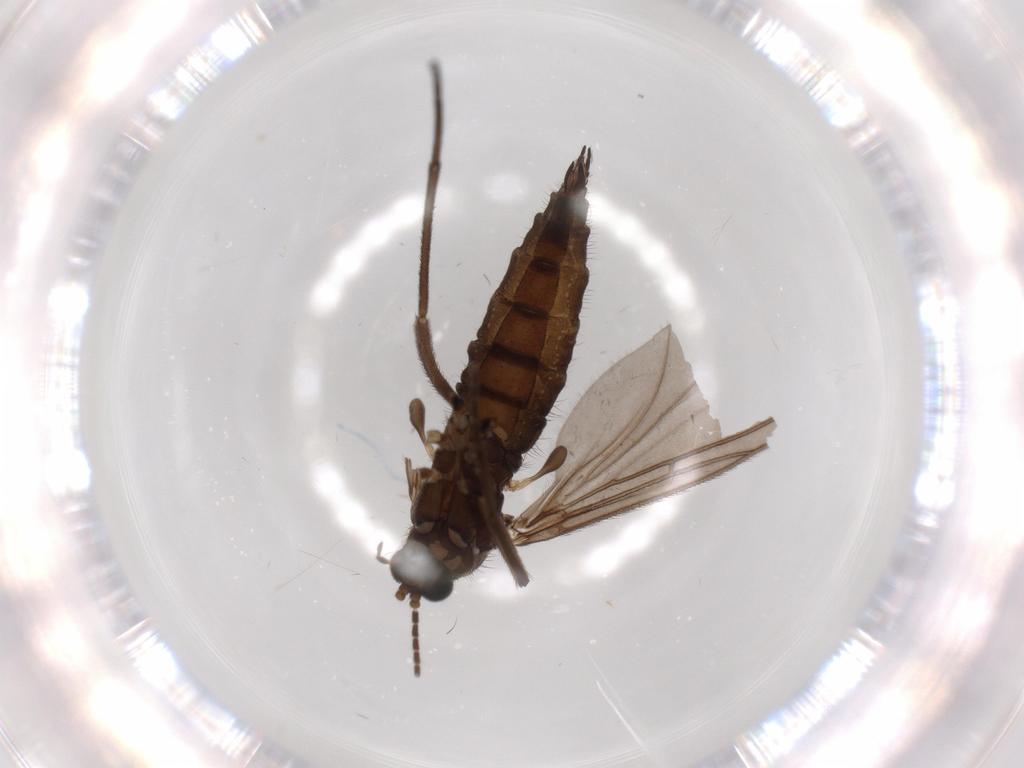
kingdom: Animalia
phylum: Arthropoda
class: Insecta
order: Diptera
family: Sciaridae
